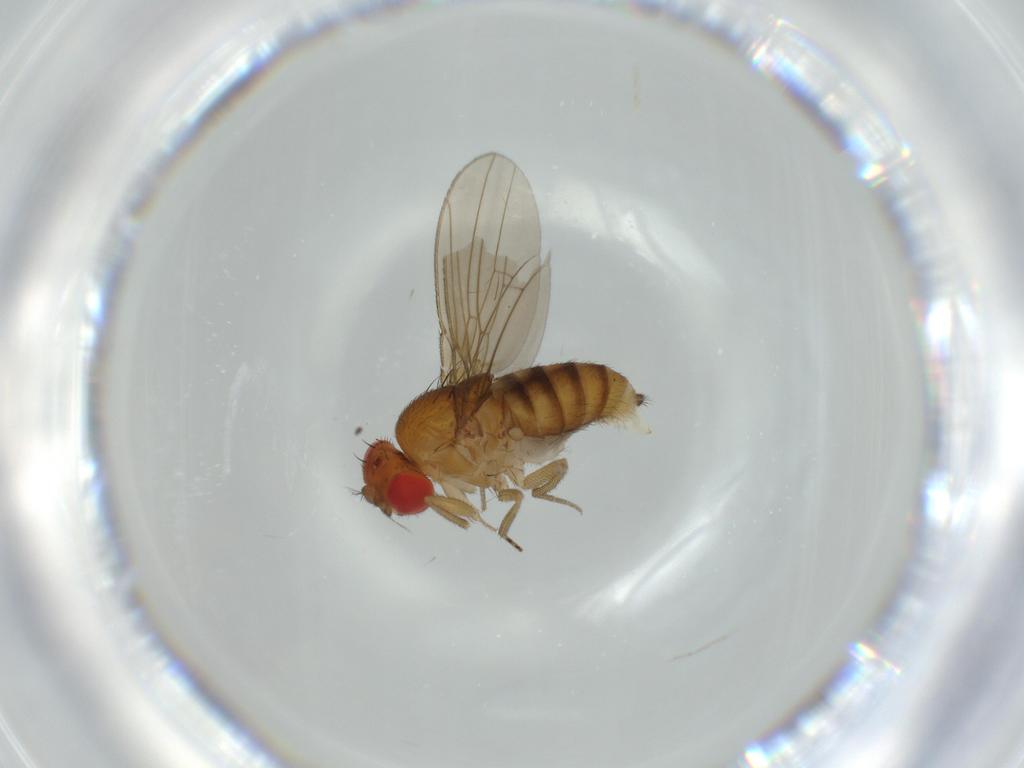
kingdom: Animalia
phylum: Arthropoda
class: Insecta
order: Diptera
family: Drosophilidae
